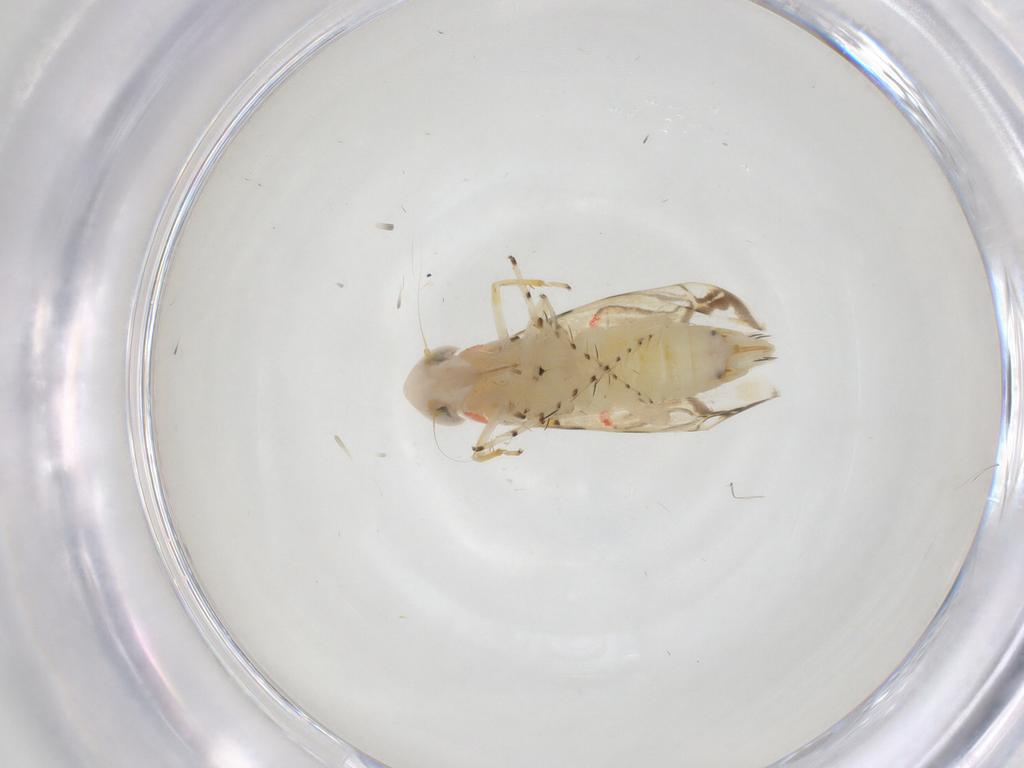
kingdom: Animalia
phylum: Arthropoda
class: Insecta
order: Hemiptera
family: Cicadellidae
